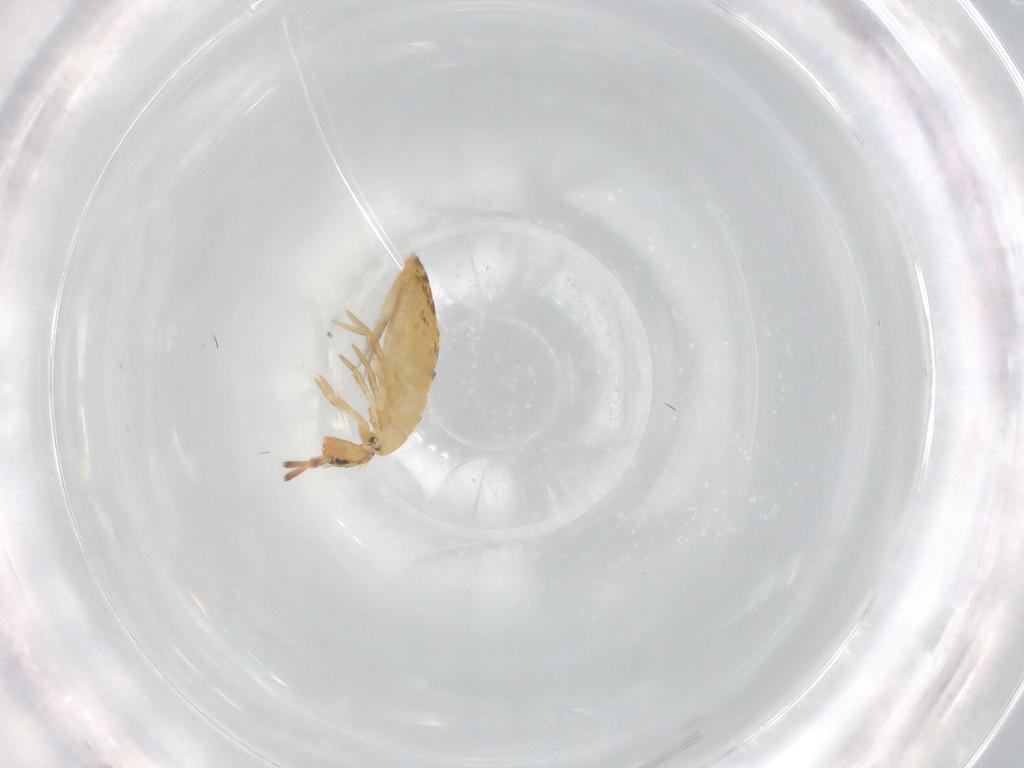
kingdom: Animalia
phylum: Arthropoda
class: Collembola
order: Entomobryomorpha
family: Entomobryidae
